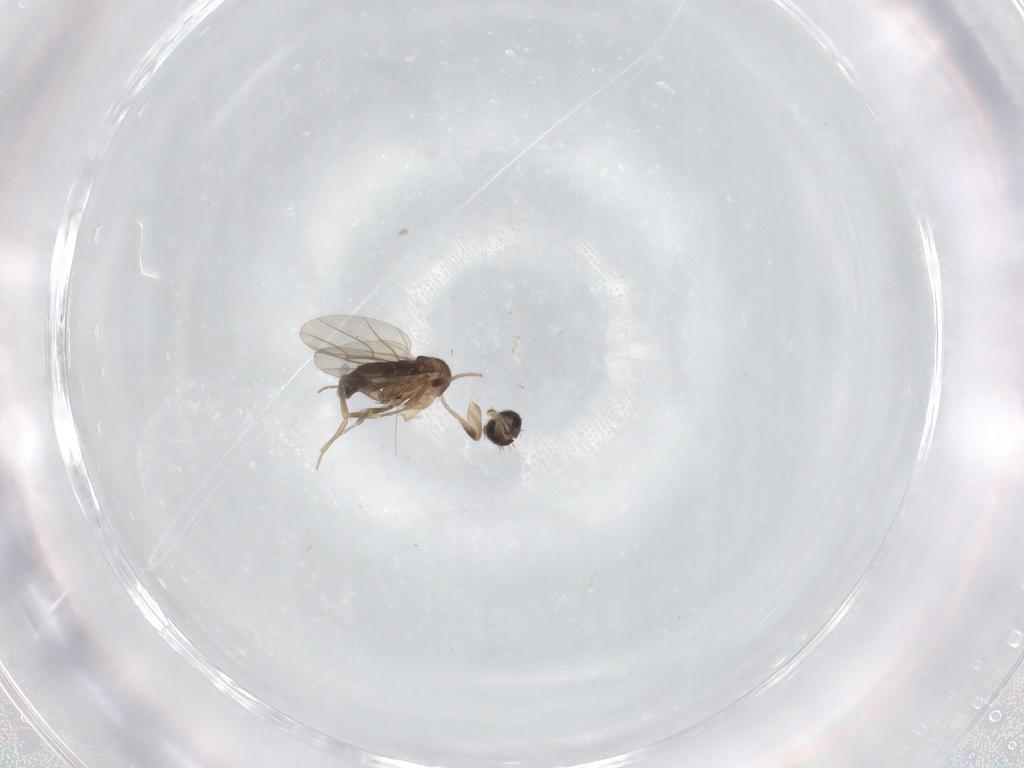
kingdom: Animalia
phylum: Arthropoda
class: Insecta
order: Diptera
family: Phoridae
